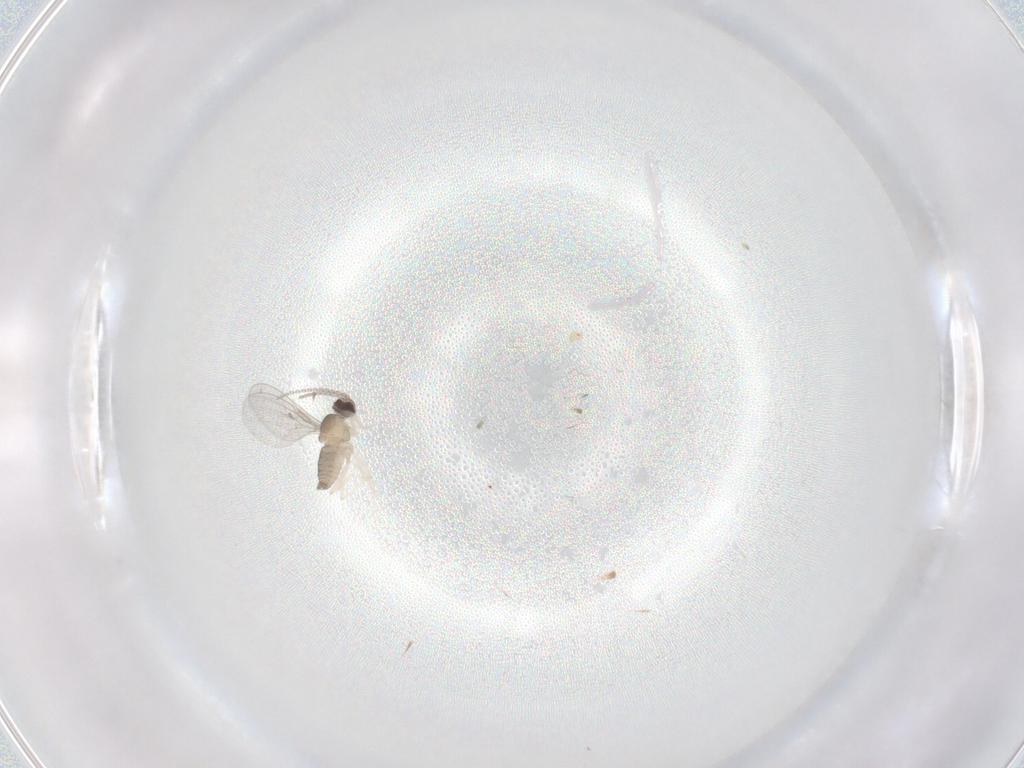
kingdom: Animalia
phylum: Arthropoda
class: Insecta
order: Diptera
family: Cecidomyiidae
